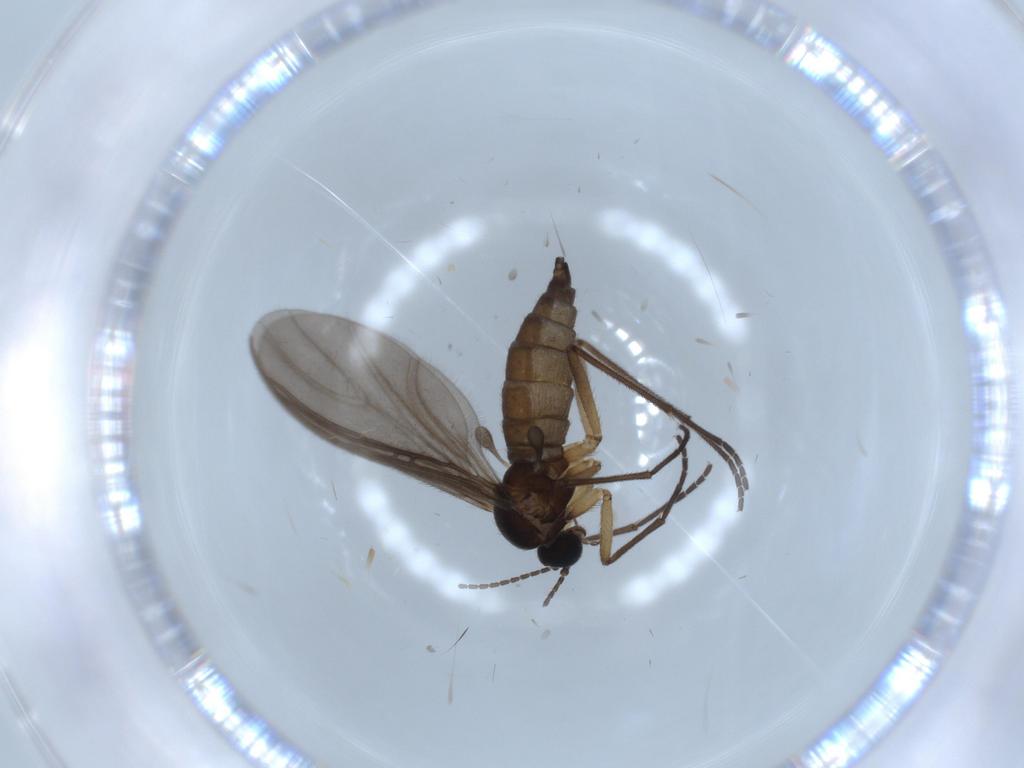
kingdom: Animalia
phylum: Arthropoda
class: Insecta
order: Diptera
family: Sciaridae
